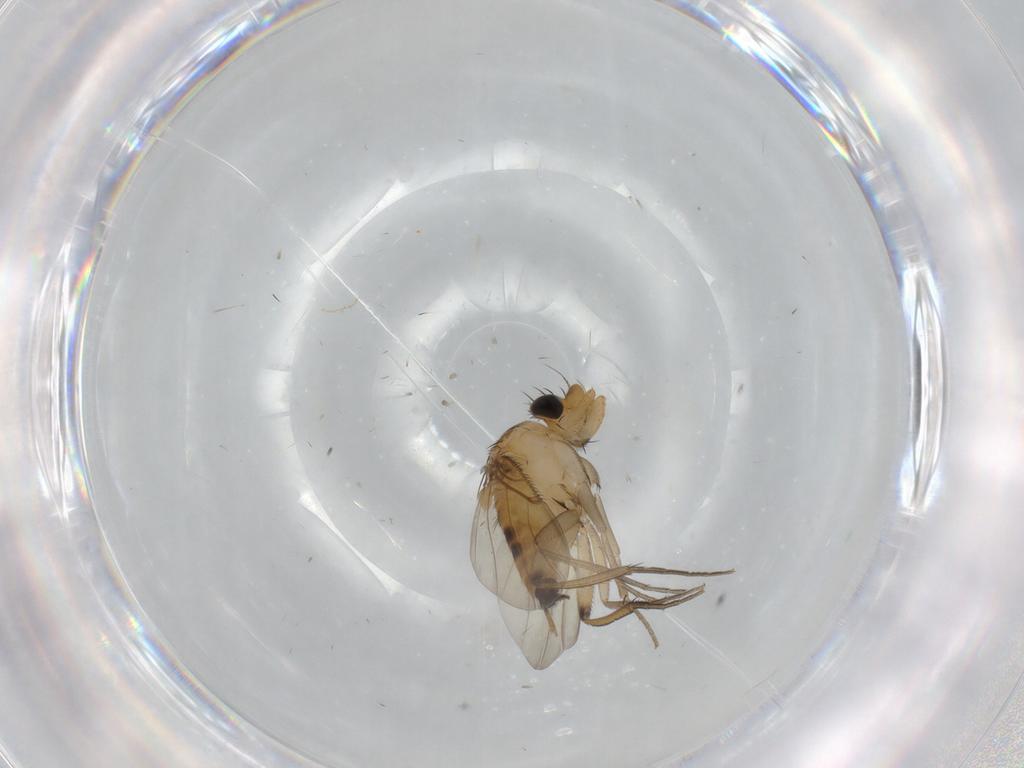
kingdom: Animalia
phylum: Arthropoda
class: Insecta
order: Diptera
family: Phoridae
